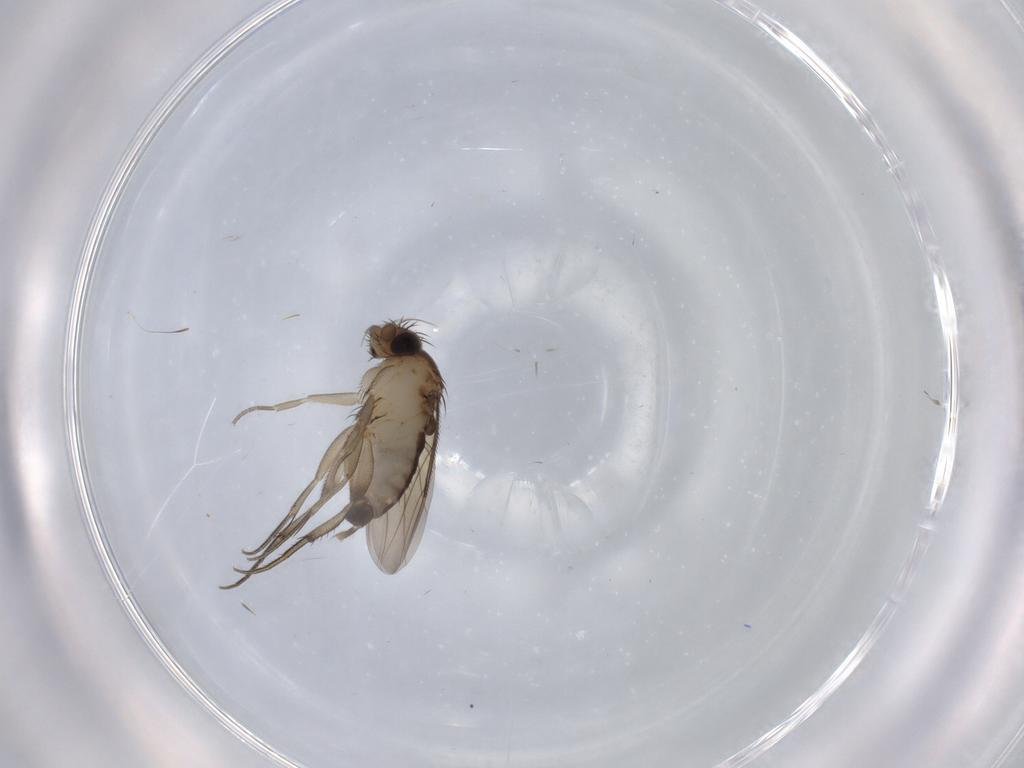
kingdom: Animalia
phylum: Arthropoda
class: Insecta
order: Diptera
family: Phoridae
